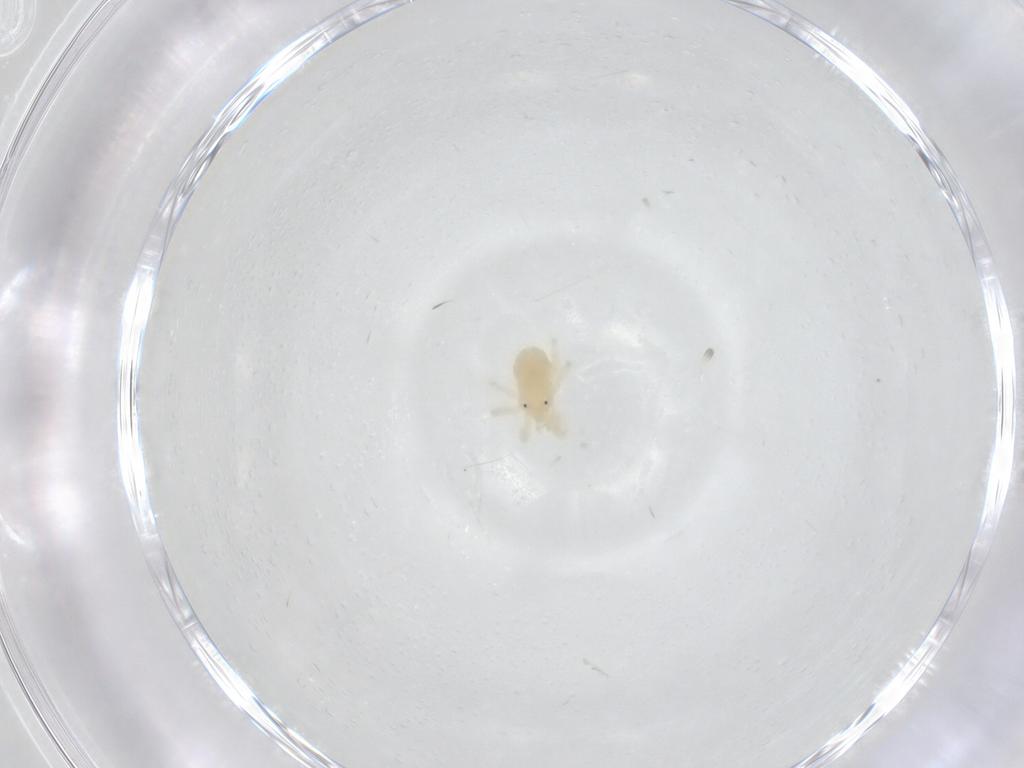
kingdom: Animalia
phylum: Arthropoda
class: Arachnida
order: Trombidiformes
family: Anystidae
